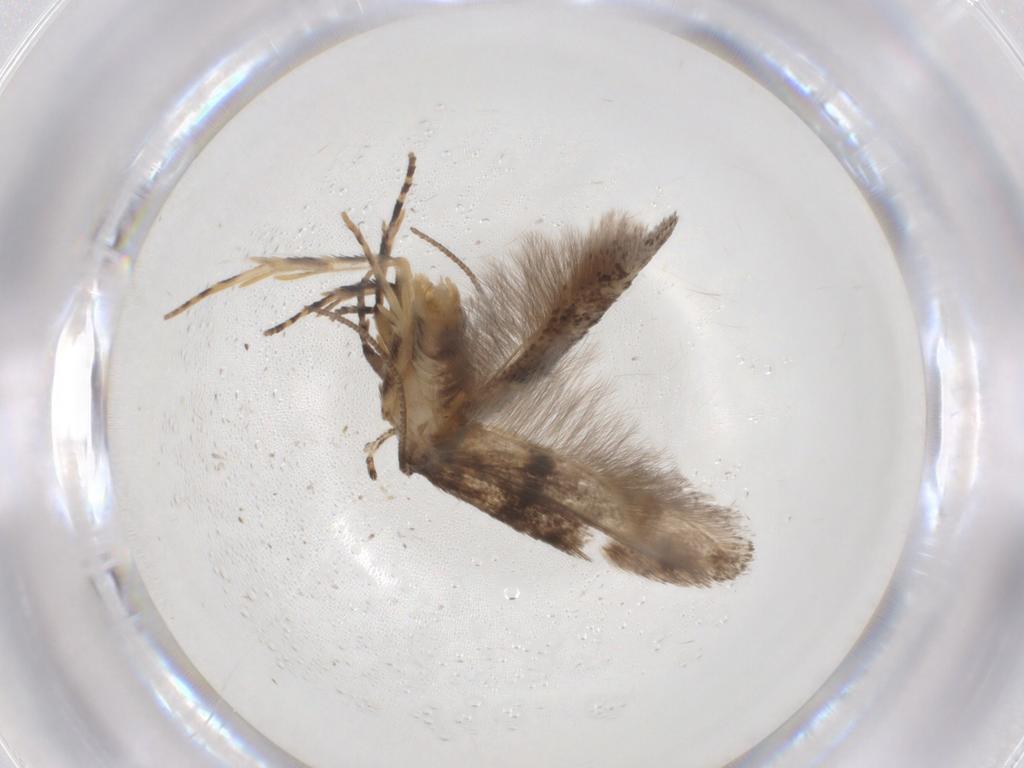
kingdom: Animalia
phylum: Arthropoda
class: Insecta
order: Lepidoptera
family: Gelechiidae
